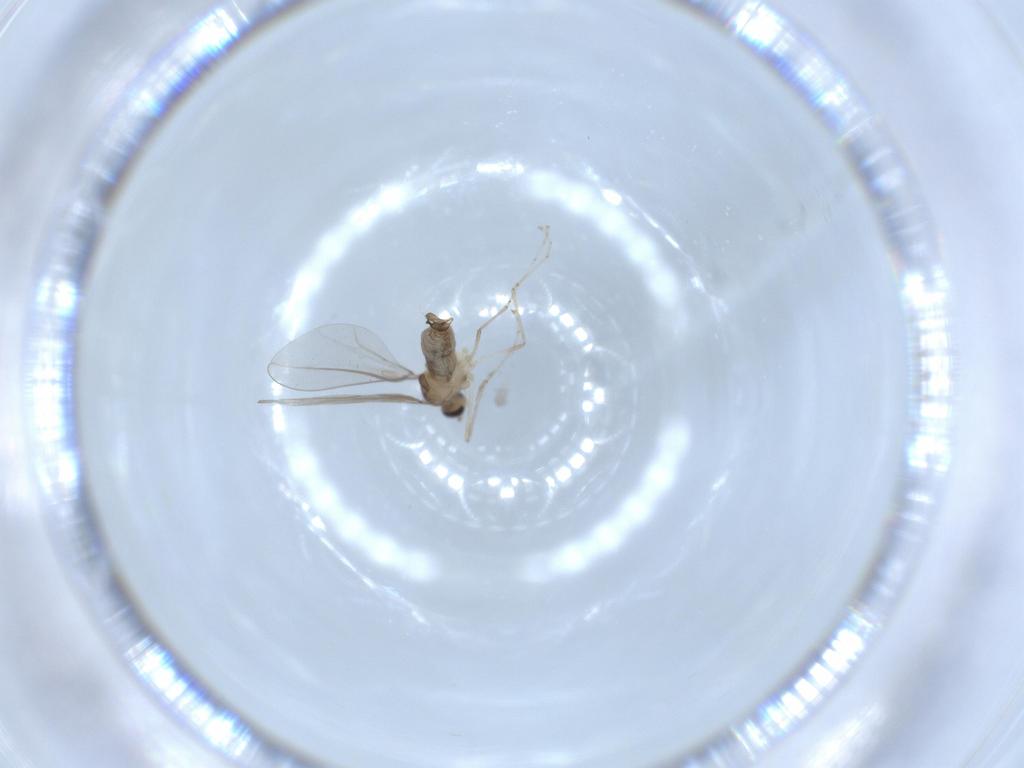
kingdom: Animalia
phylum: Arthropoda
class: Insecta
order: Diptera
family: Cecidomyiidae
